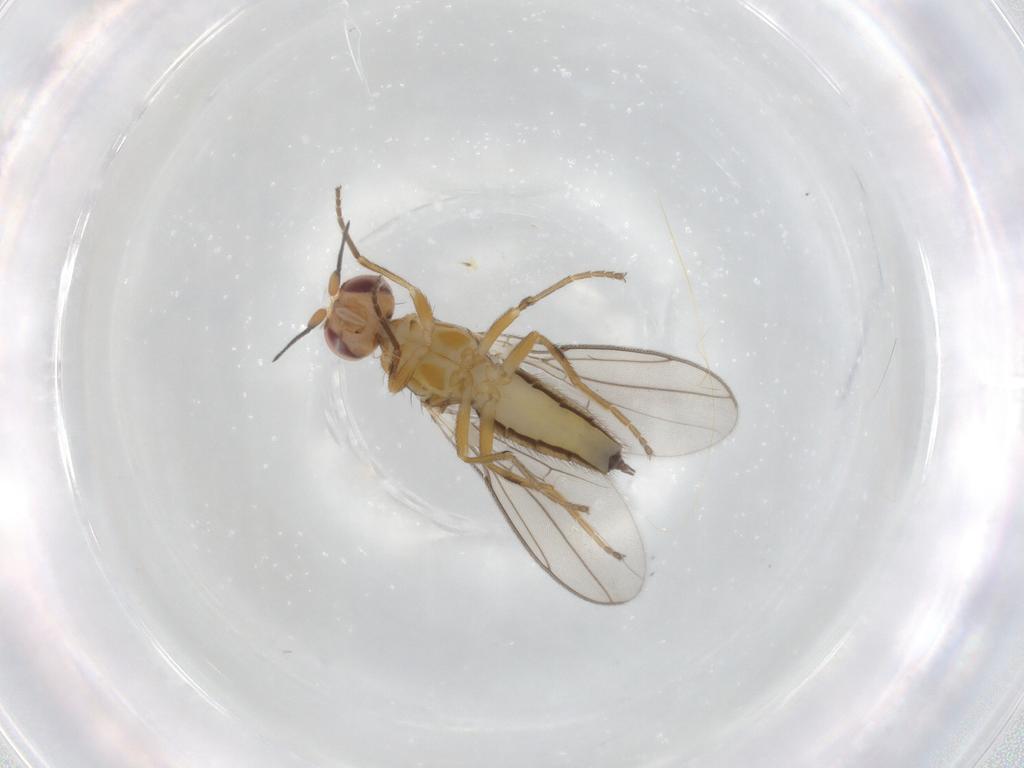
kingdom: Animalia
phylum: Arthropoda
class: Insecta
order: Diptera
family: Chloropidae
